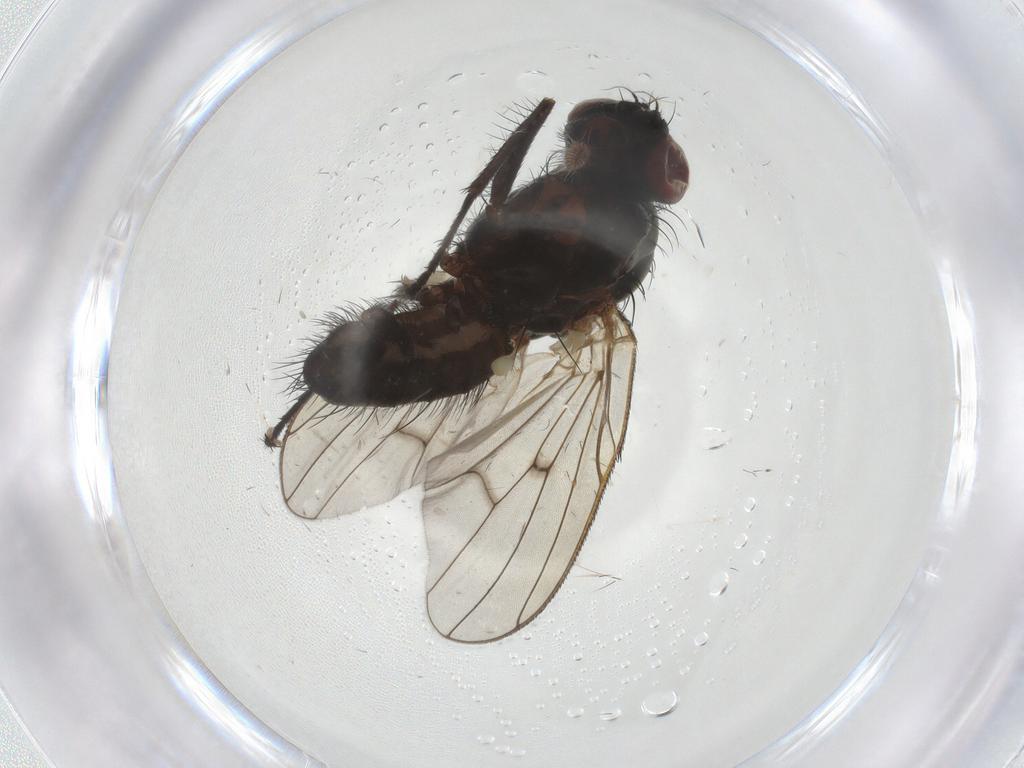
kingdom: Animalia
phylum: Arthropoda
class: Insecta
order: Diptera
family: Anthomyiidae
